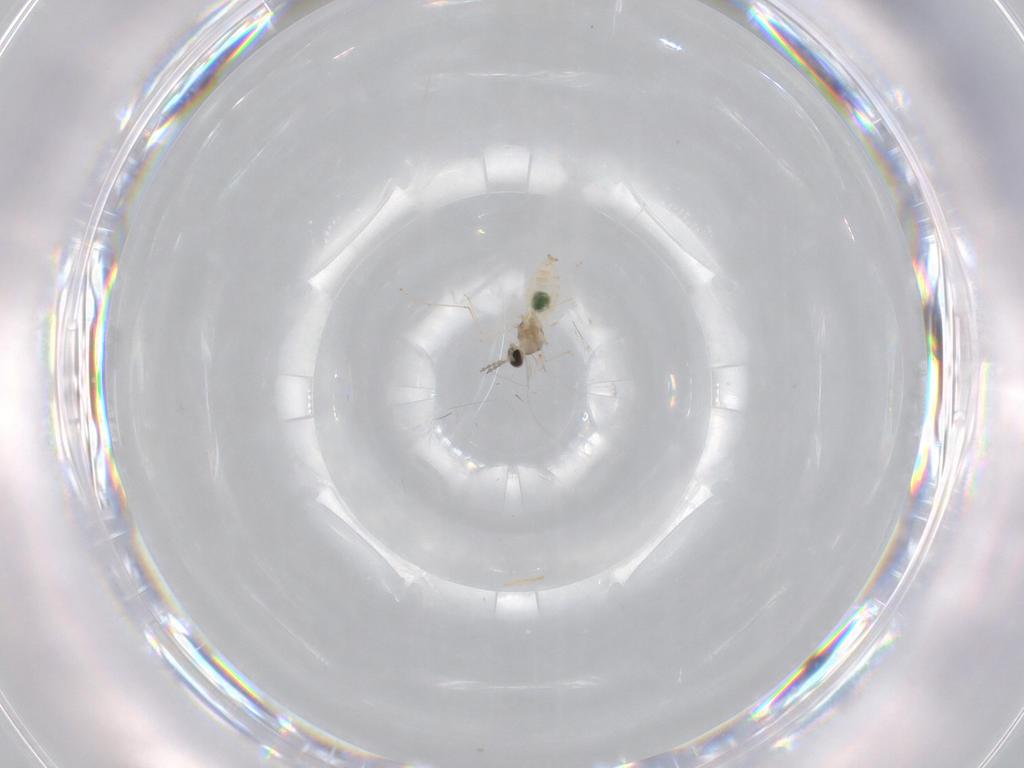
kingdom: Animalia
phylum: Arthropoda
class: Insecta
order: Diptera
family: Cecidomyiidae
